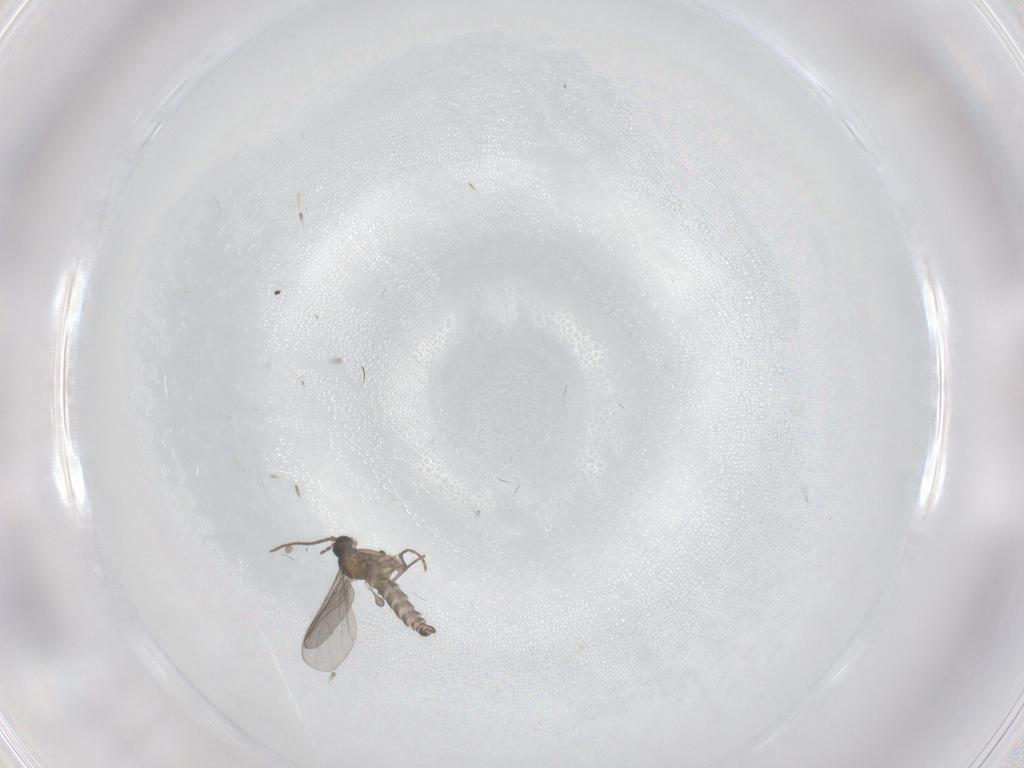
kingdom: Animalia
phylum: Arthropoda
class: Insecta
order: Diptera
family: Sciaridae
